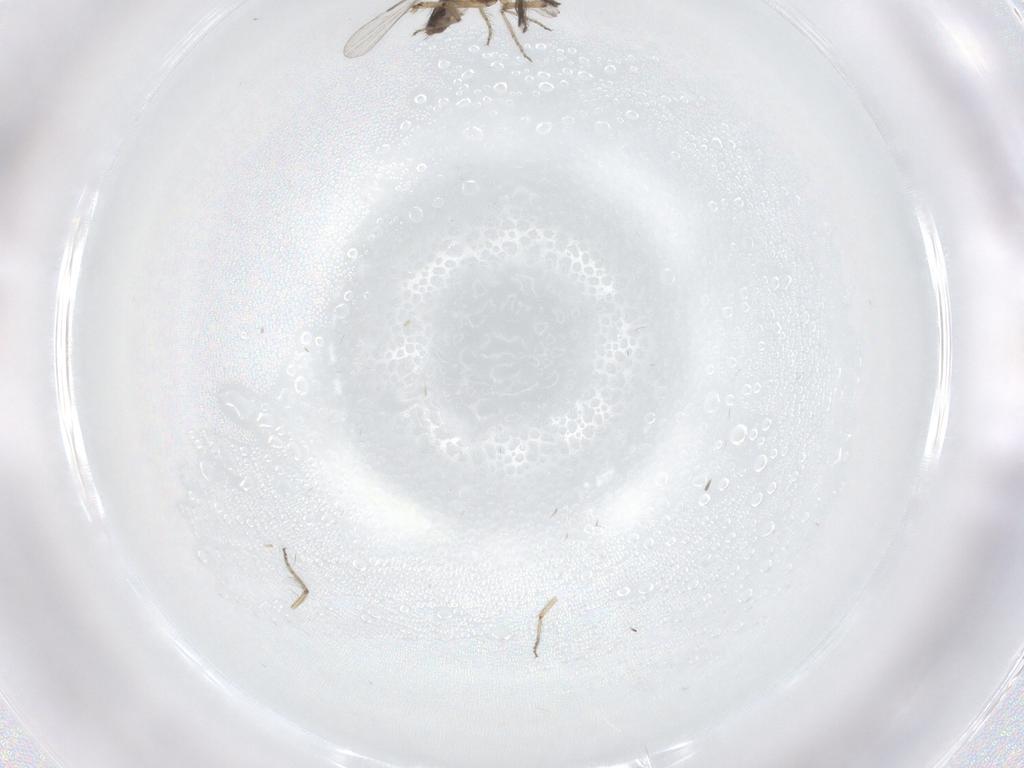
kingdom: Animalia
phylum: Arthropoda
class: Insecta
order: Diptera
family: Ceratopogonidae
